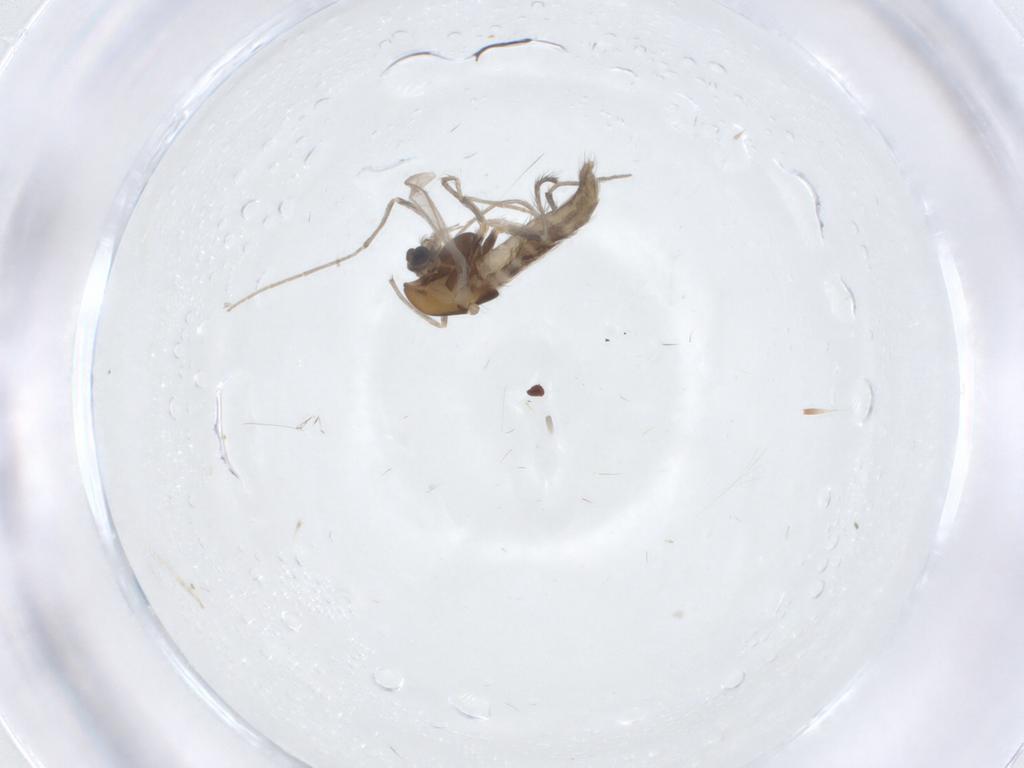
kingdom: Animalia
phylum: Arthropoda
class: Insecta
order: Diptera
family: Chironomidae
